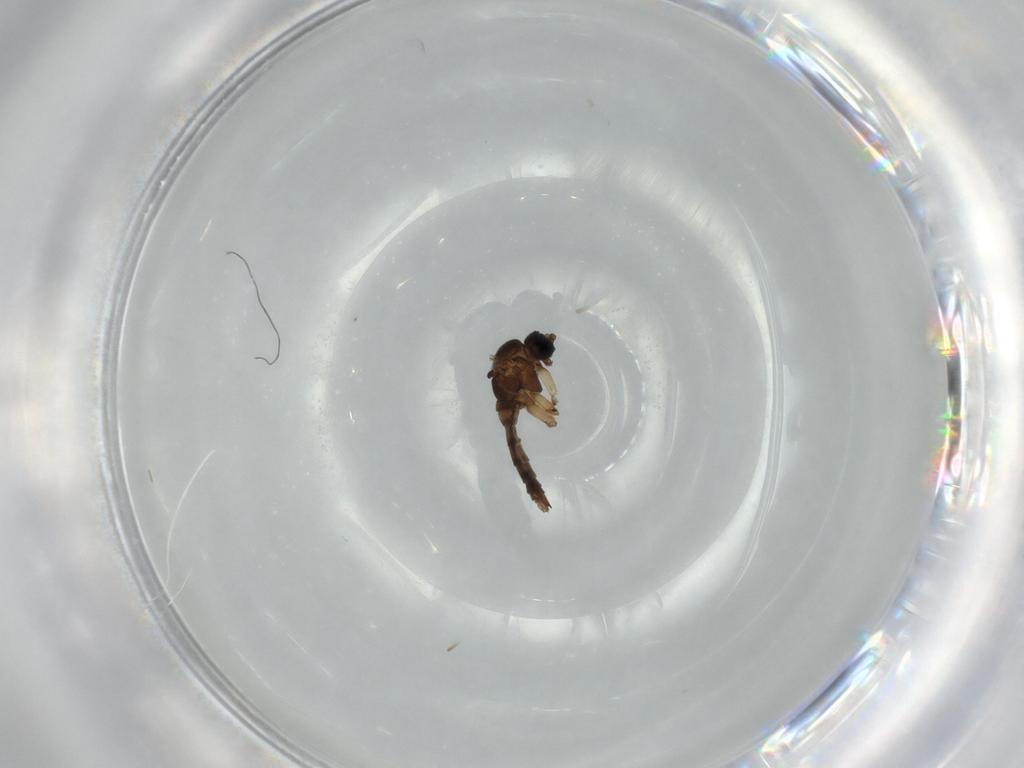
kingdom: Animalia
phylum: Arthropoda
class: Insecta
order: Diptera
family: Sciaridae
